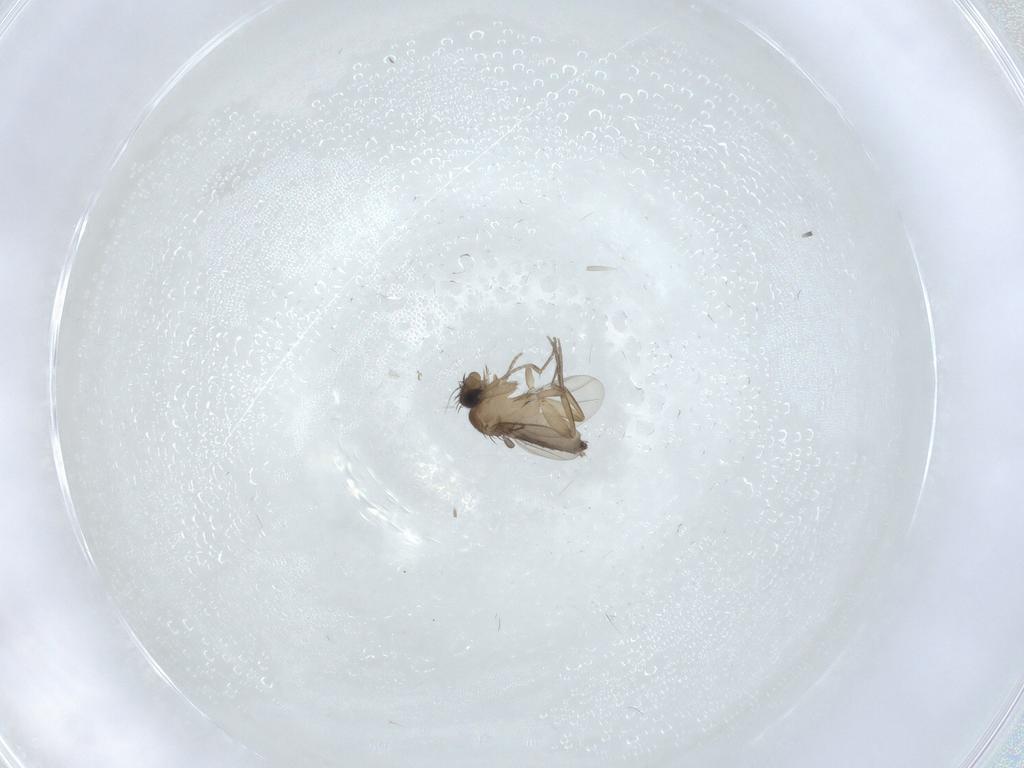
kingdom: Animalia
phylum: Arthropoda
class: Insecta
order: Diptera
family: Phoridae
